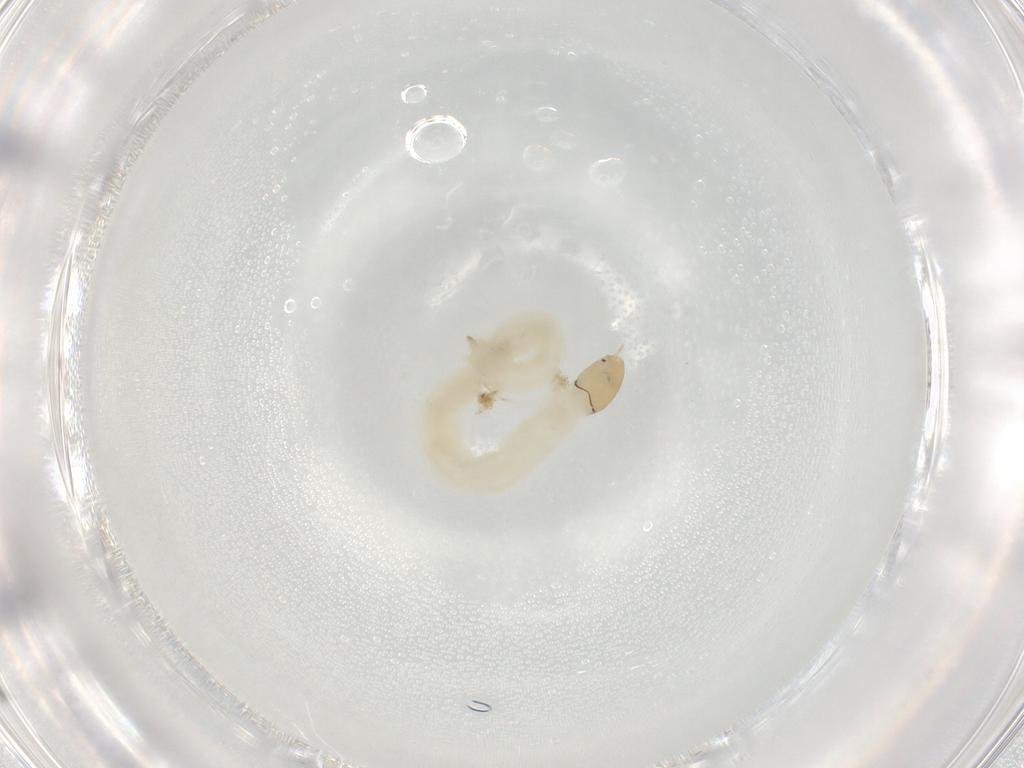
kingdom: Animalia
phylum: Arthropoda
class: Insecta
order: Diptera
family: Chironomidae
